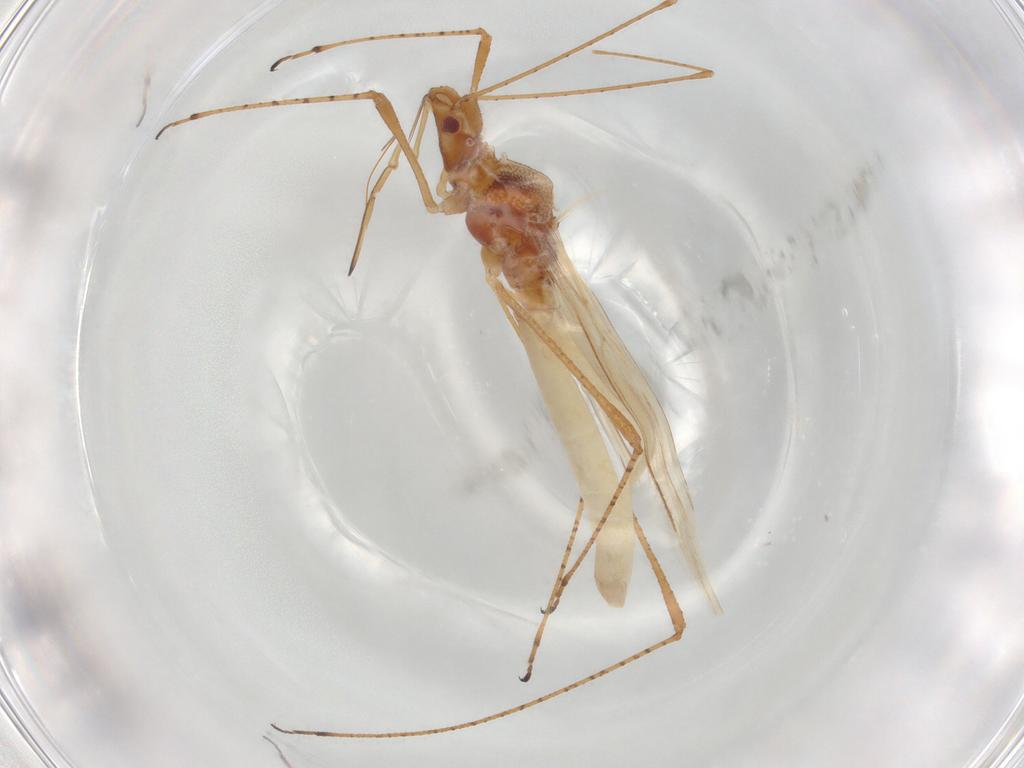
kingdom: Animalia
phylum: Arthropoda
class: Insecta
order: Hemiptera
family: Cymidae
